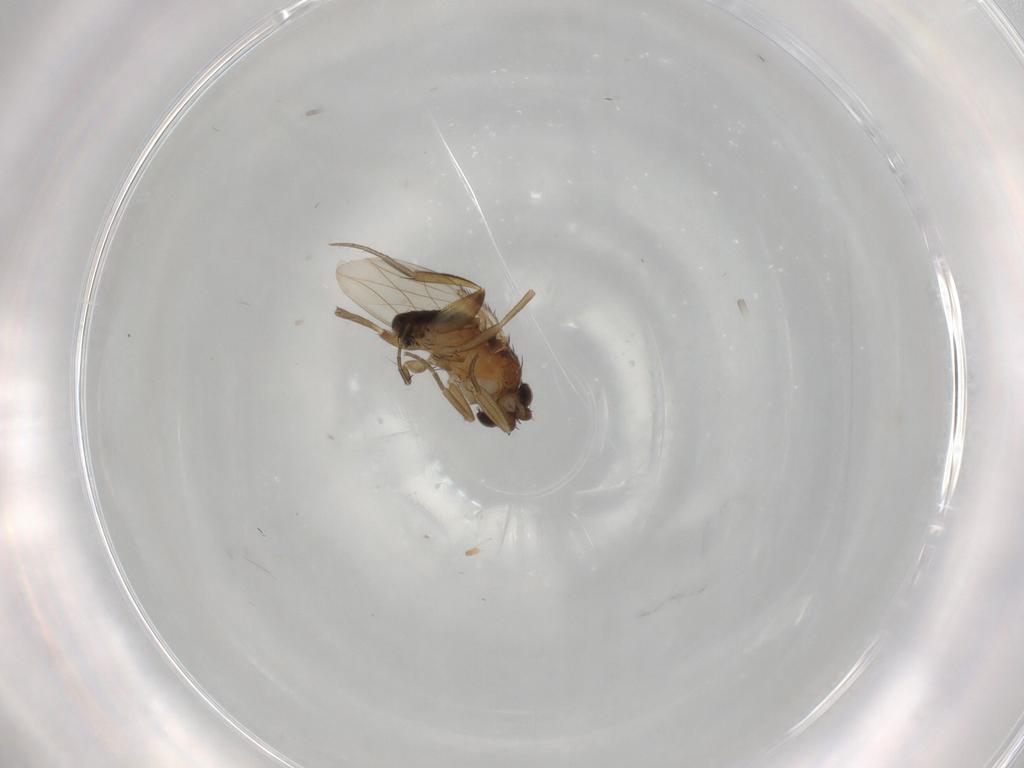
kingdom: Animalia
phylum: Arthropoda
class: Insecta
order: Diptera
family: Phoridae
